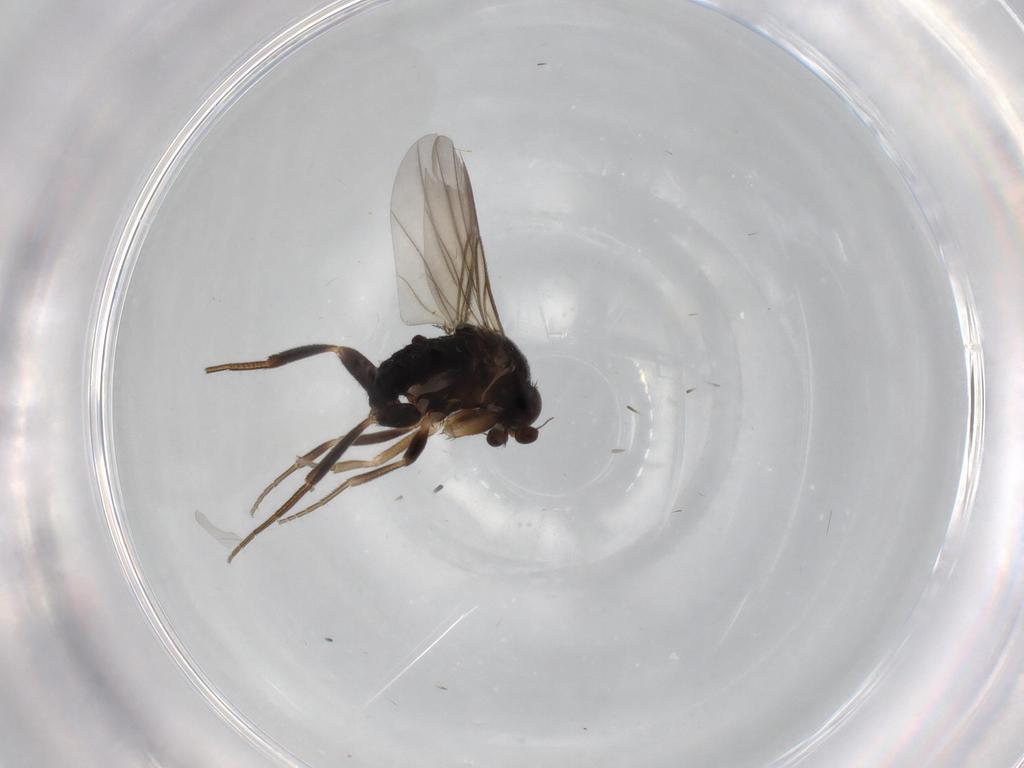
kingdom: Animalia
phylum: Arthropoda
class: Insecta
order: Diptera
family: Phoridae
